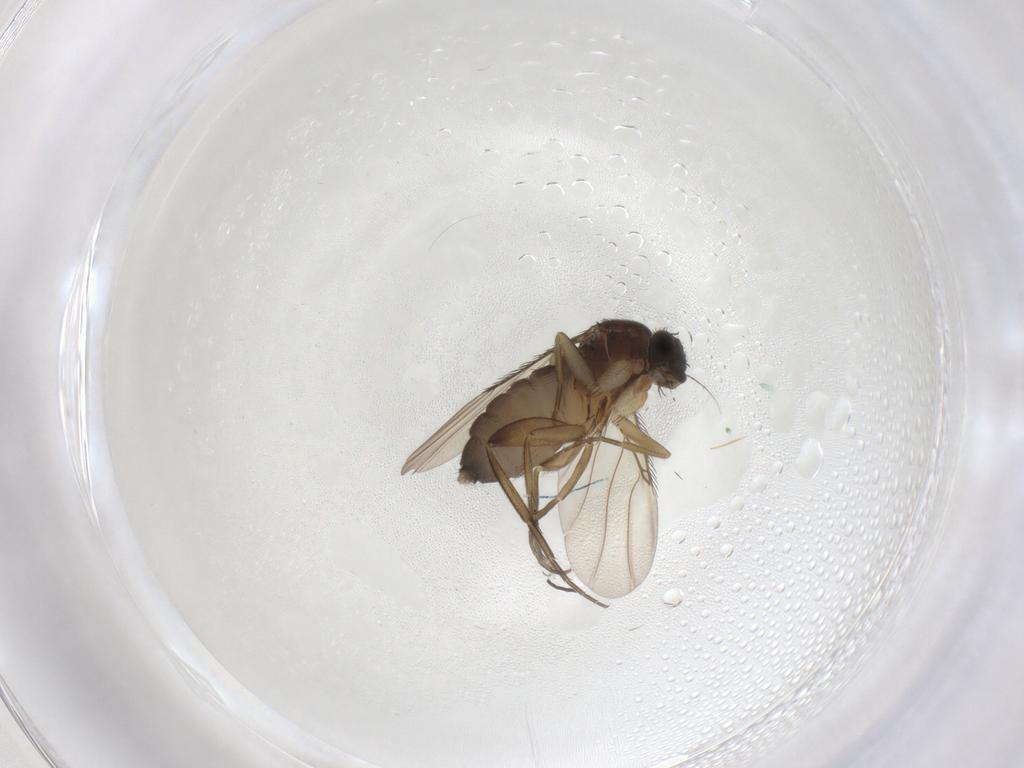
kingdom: Animalia
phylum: Arthropoda
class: Insecta
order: Diptera
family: Phoridae
